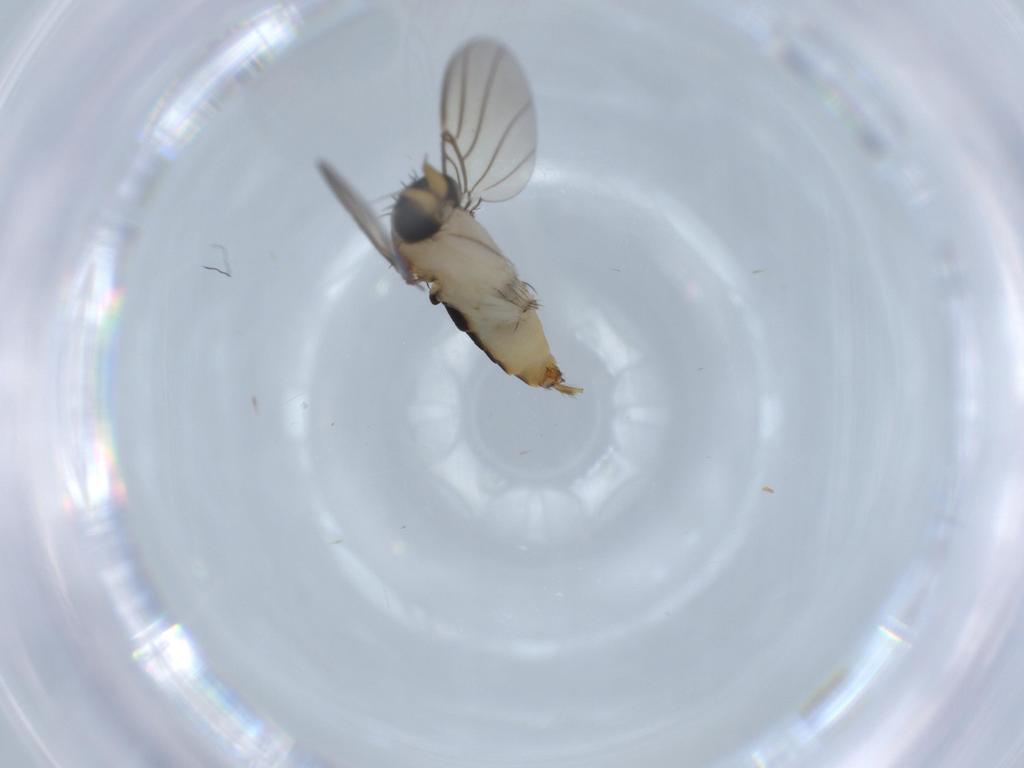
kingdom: Animalia
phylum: Arthropoda
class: Insecta
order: Diptera
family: Phoridae
